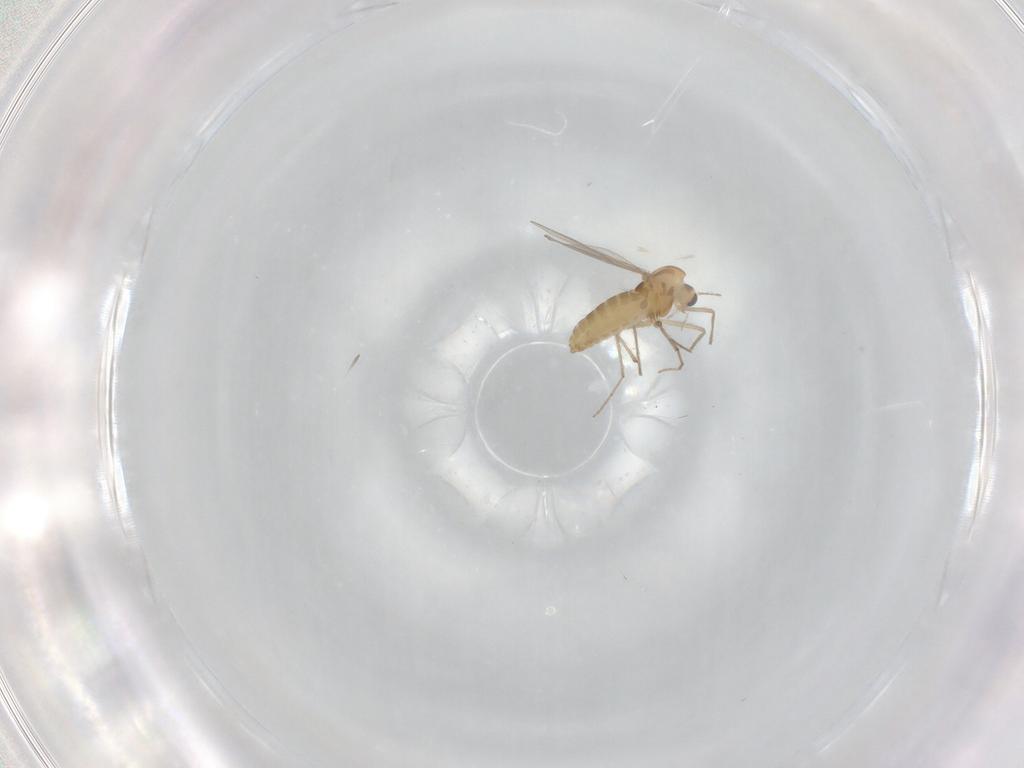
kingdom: Animalia
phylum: Arthropoda
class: Insecta
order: Diptera
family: Chironomidae
